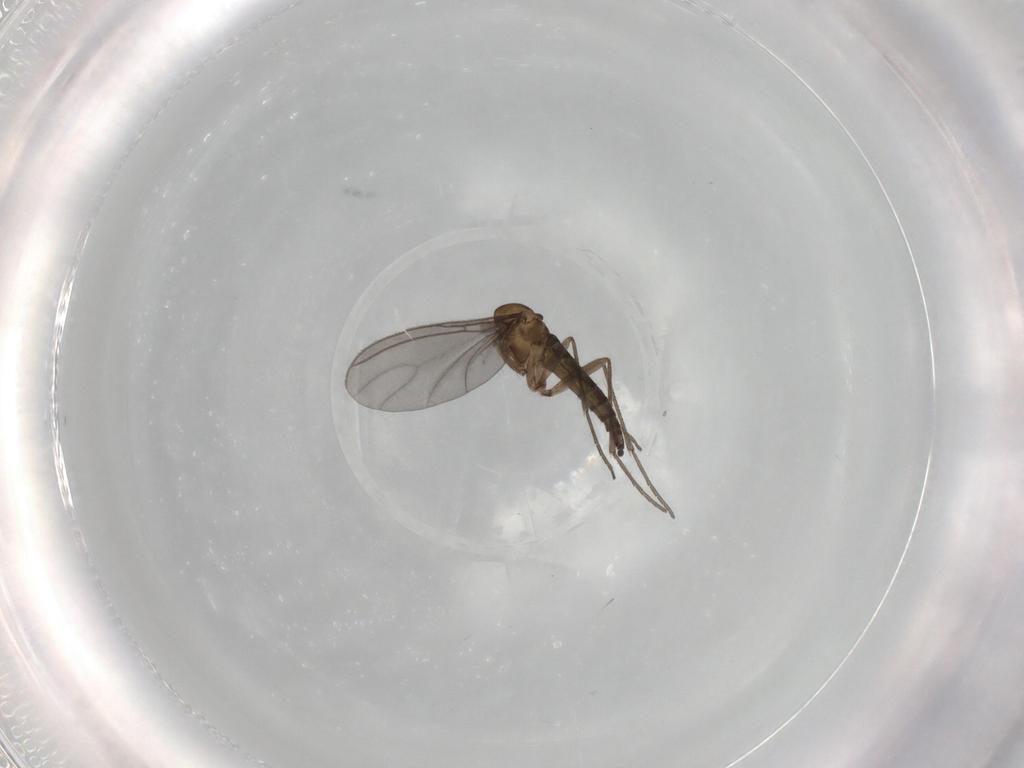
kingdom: Animalia
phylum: Arthropoda
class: Insecta
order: Diptera
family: Sciaridae
